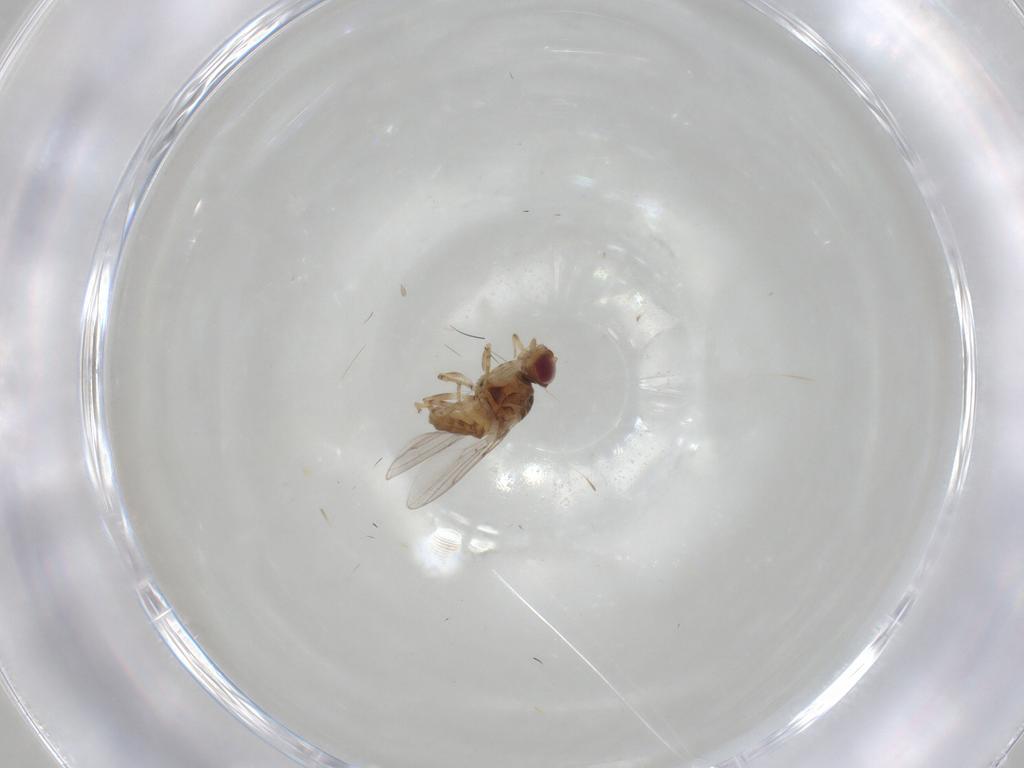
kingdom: Animalia
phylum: Arthropoda
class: Insecta
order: Diptera
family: Chloropidae
